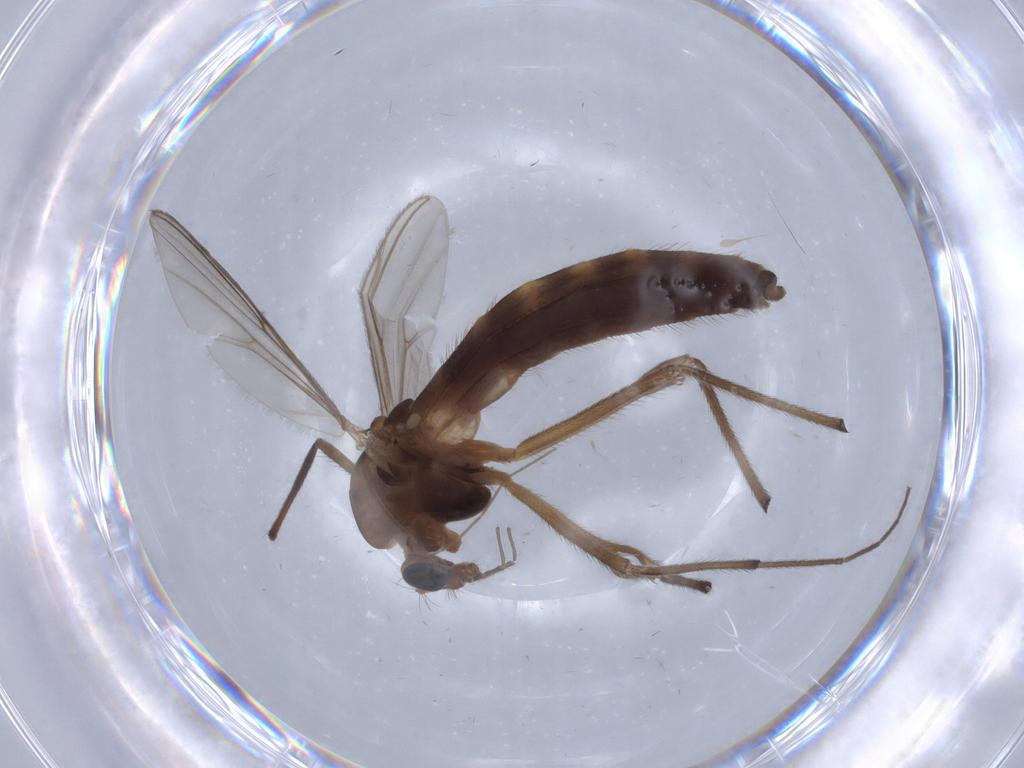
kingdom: Animalia
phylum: Arthropoda
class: Insecta
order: Diptera
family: Chironomidae
